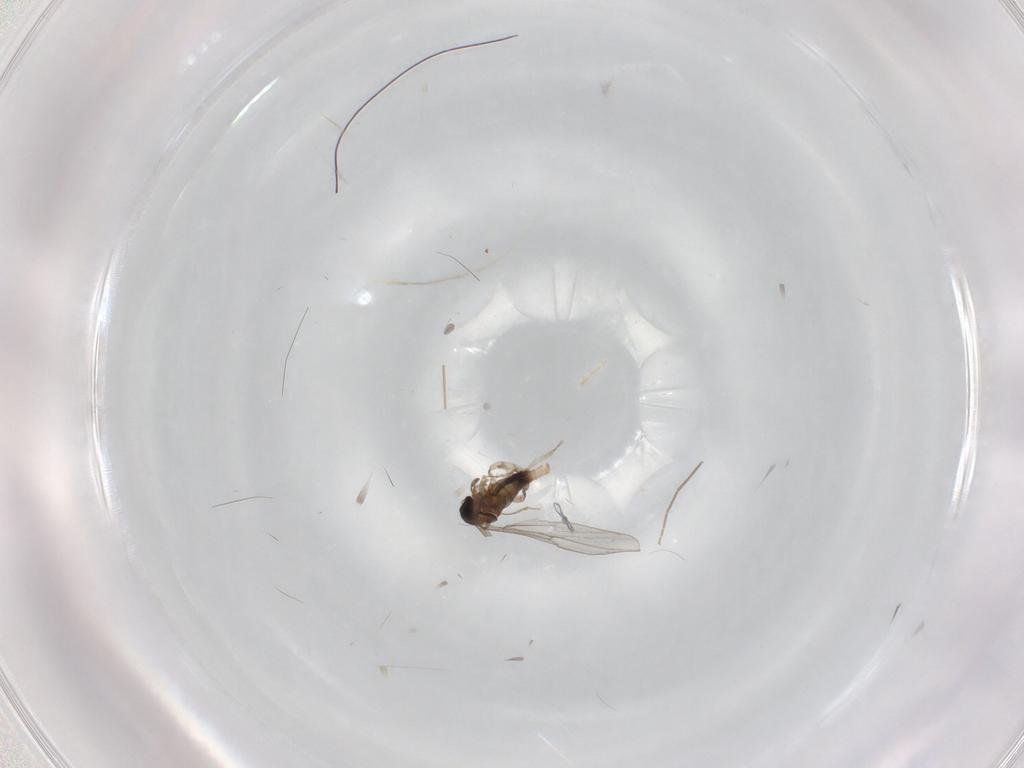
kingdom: Animalia
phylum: Arthropoda
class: Insecta
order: Diptera
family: Cecidomyiidae
